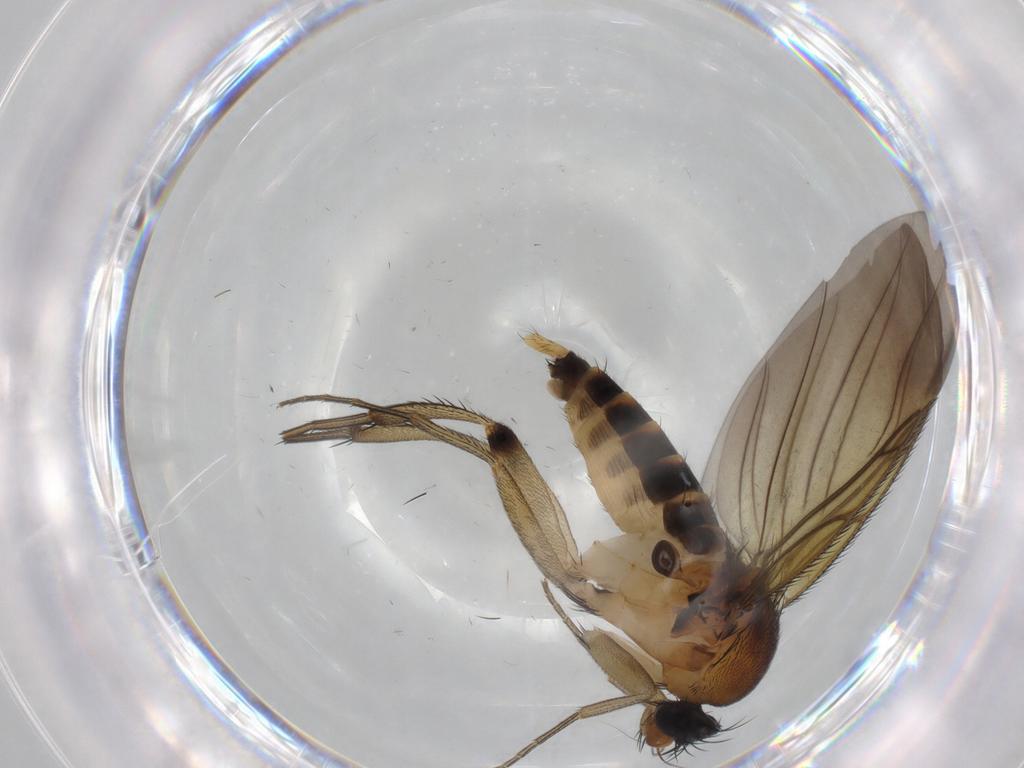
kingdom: Animalia
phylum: Arthropoda
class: Insecta
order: Diptera
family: Phoridae
